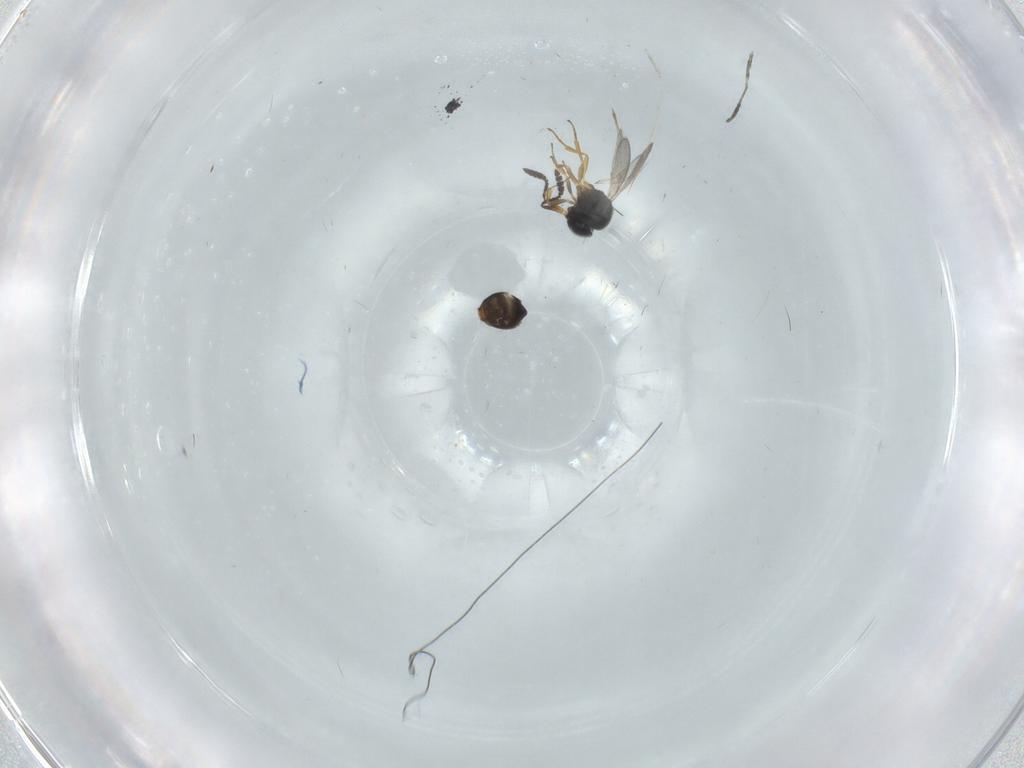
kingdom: Animalia
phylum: Arthropoda
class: Insecta
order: Hymenoptera
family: Scelionidae
